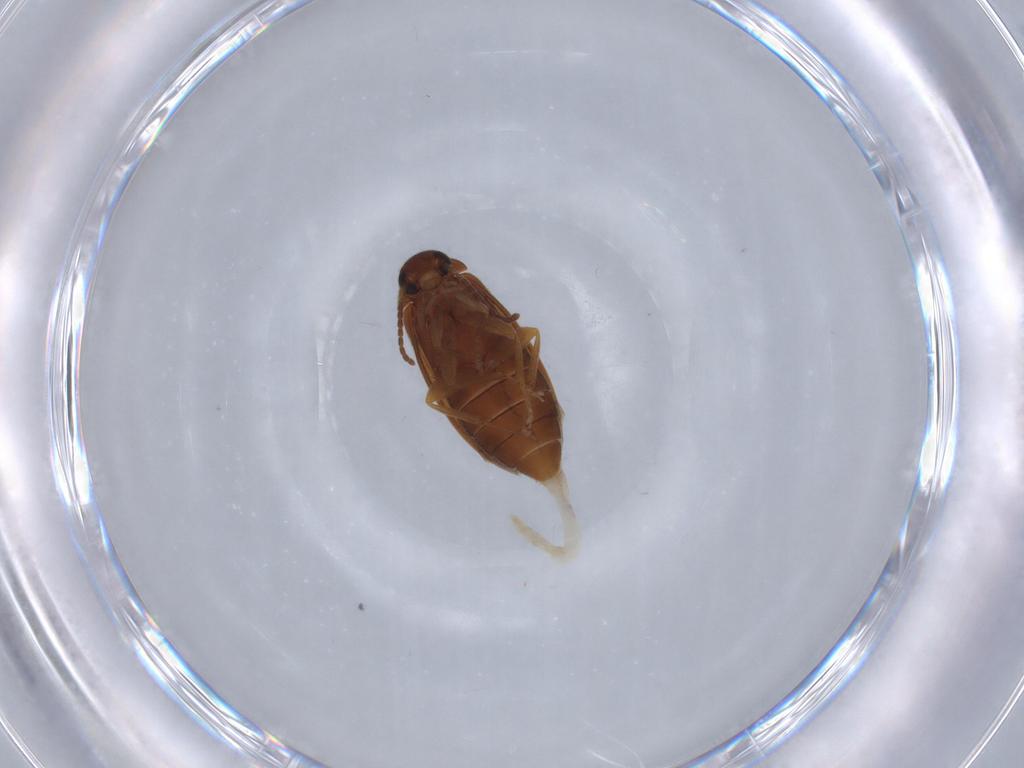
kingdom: Animalia
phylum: Arthropoda
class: Insecta
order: Coleoptera
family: Scraptiidae
